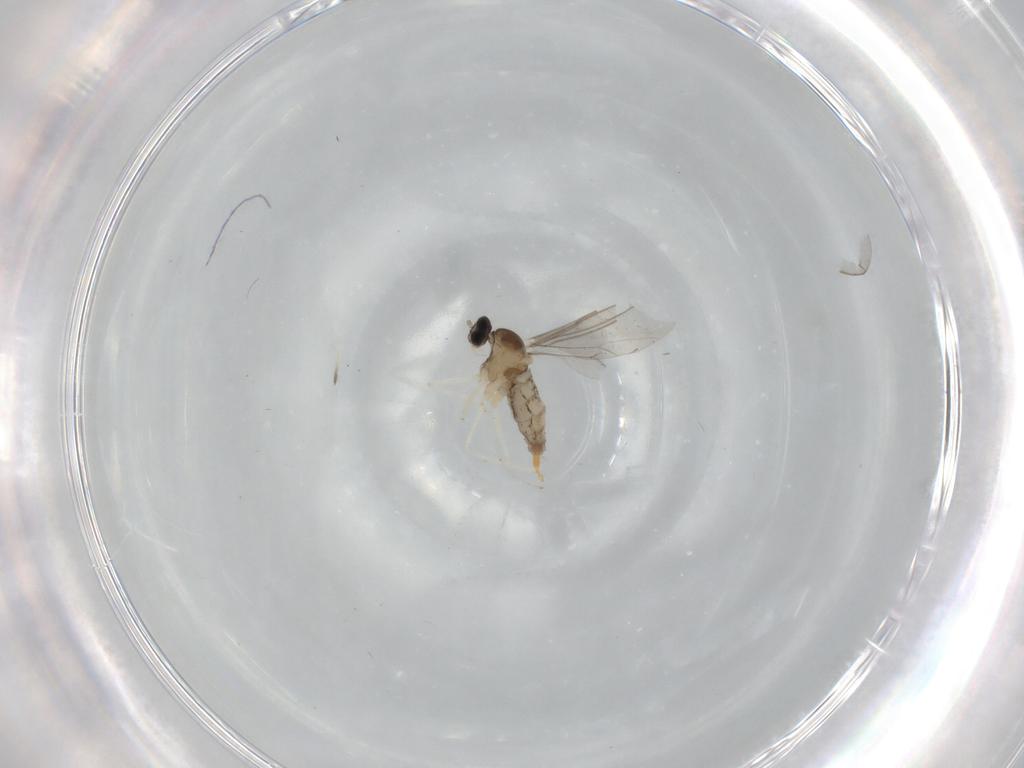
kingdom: Animalia
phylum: Arthropoda
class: Insecta
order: Diptera
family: Cecidomyiidae
